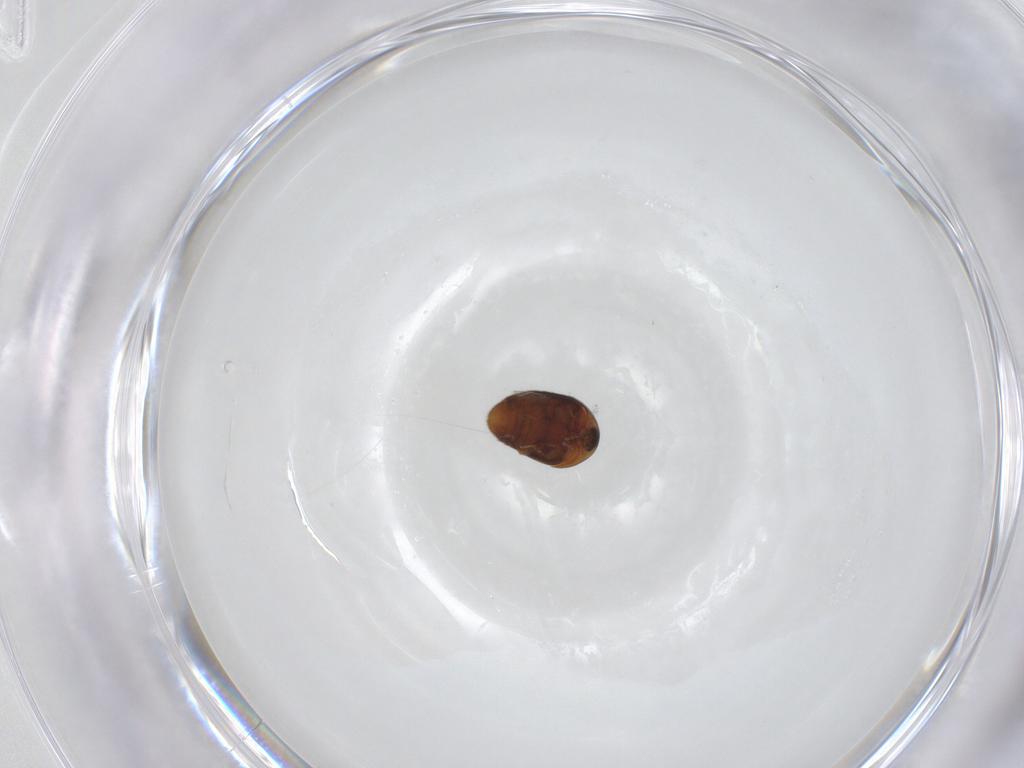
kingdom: Animalia
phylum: Arthropoda
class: Insecta
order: Coleoptera
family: Corylophidae
